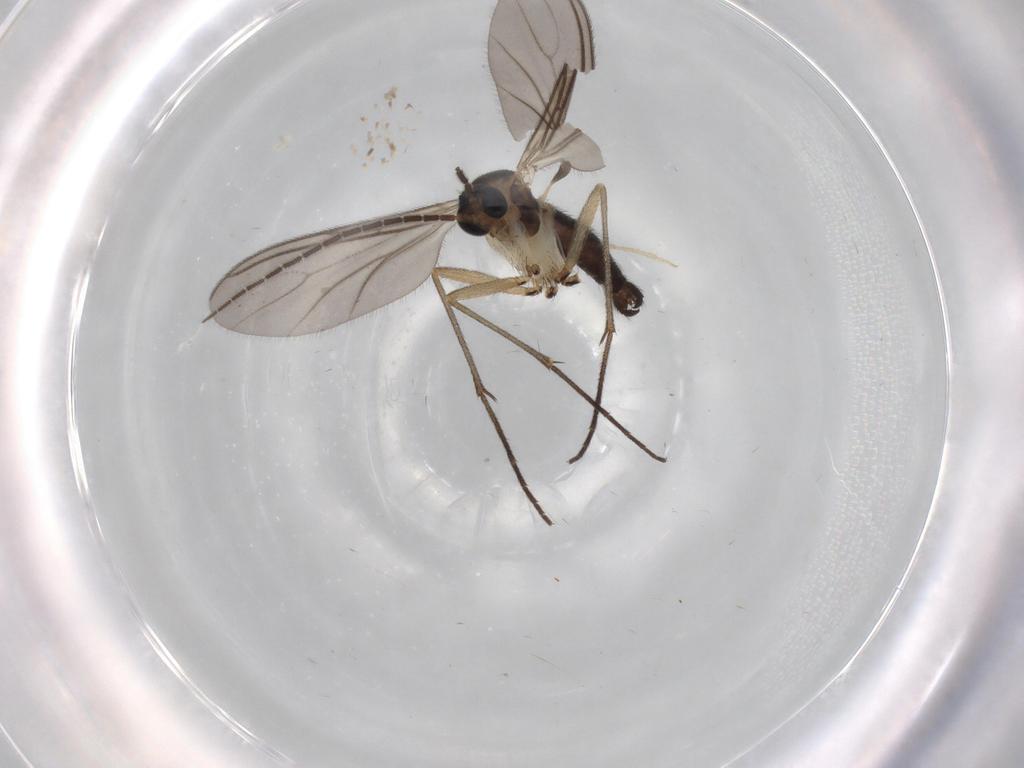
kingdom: Animalia
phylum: Arthropoda
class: Insecta
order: Diptera
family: Sciaridae
